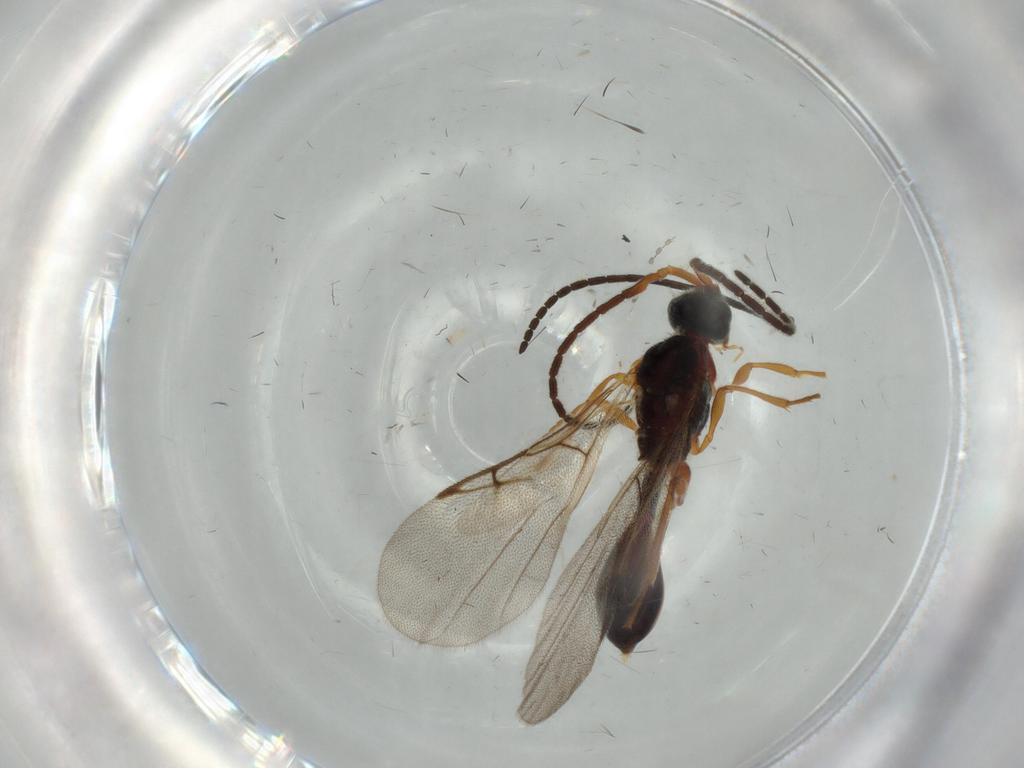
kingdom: Animalia
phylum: Arthropoda
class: Insecta
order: Hymenoptera
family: Braconidae
